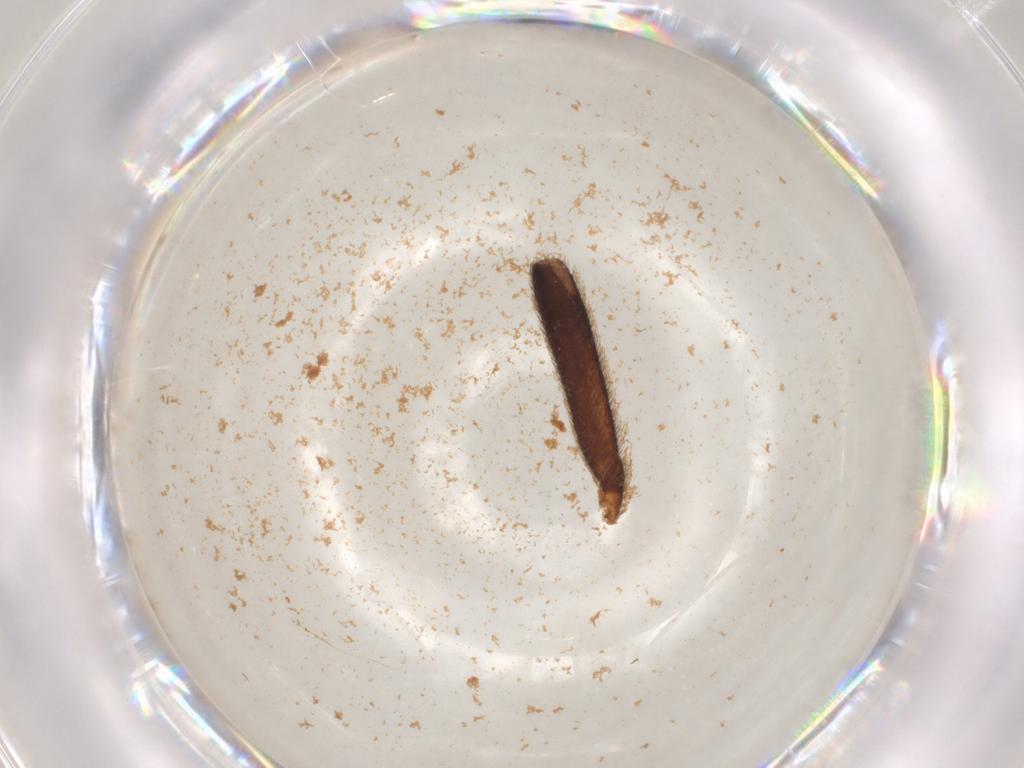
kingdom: Animalia
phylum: Arthropoda
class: Insecta
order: Coleoptera
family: Lampyridae
